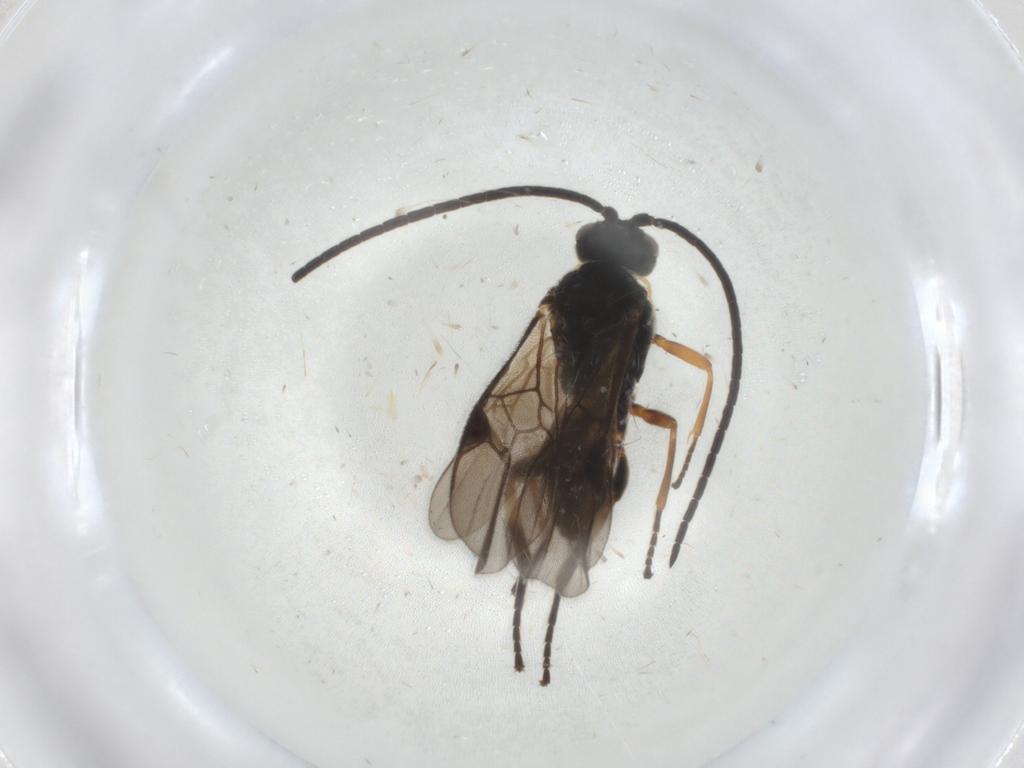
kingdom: Animalia
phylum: Arthropoda
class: Insecta
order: Hymenoptera
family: Braconidae
